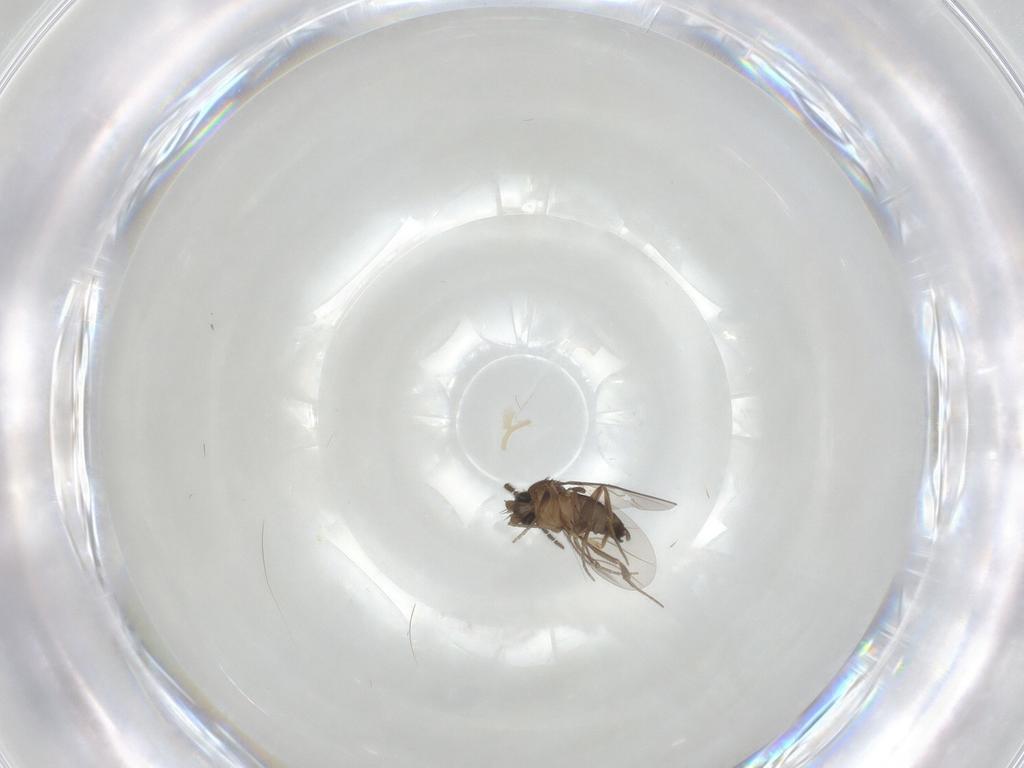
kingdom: Animalia
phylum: Arthropoda
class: Insecta
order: Diptera
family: Phoridae
